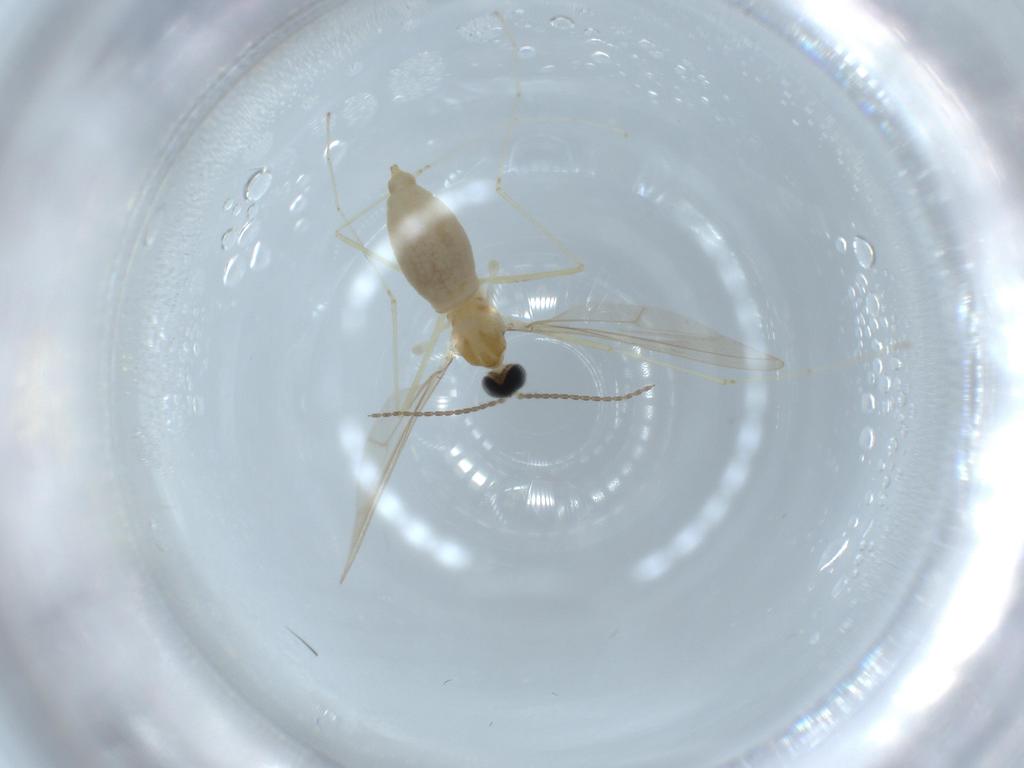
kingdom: Animalia
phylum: Arthropoda
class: Insecta
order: Diptera
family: Cecidomyiidae
